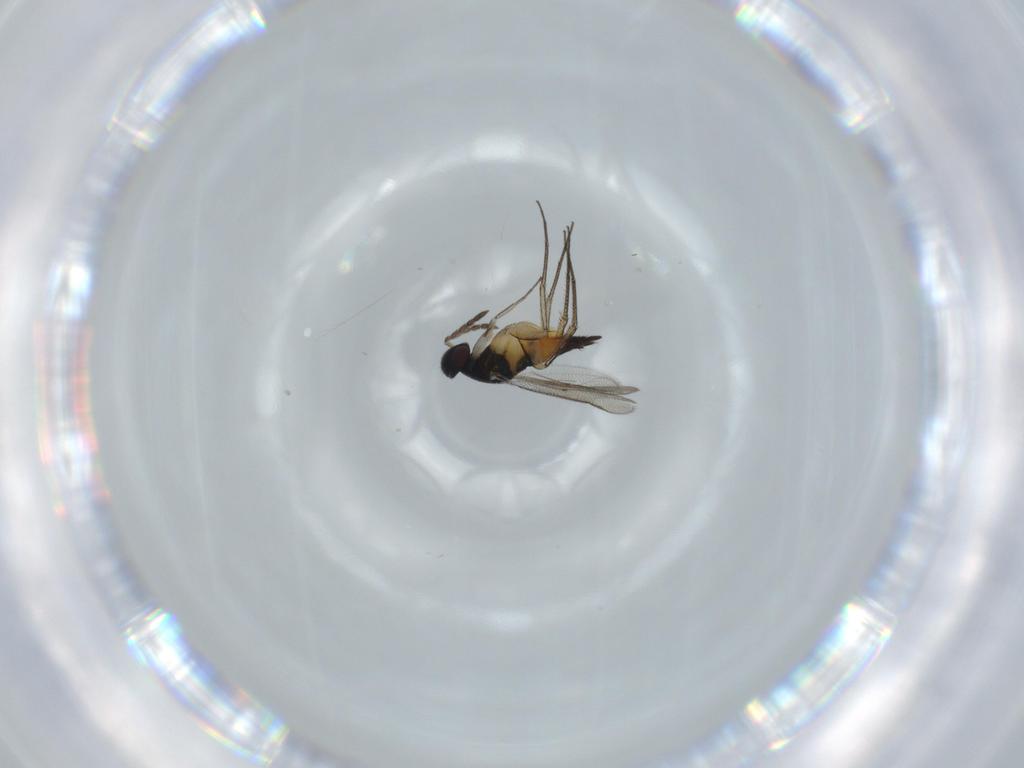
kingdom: Animalia
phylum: Arthropoda
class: Insecta
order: Hymenoptera
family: Eulophidae
